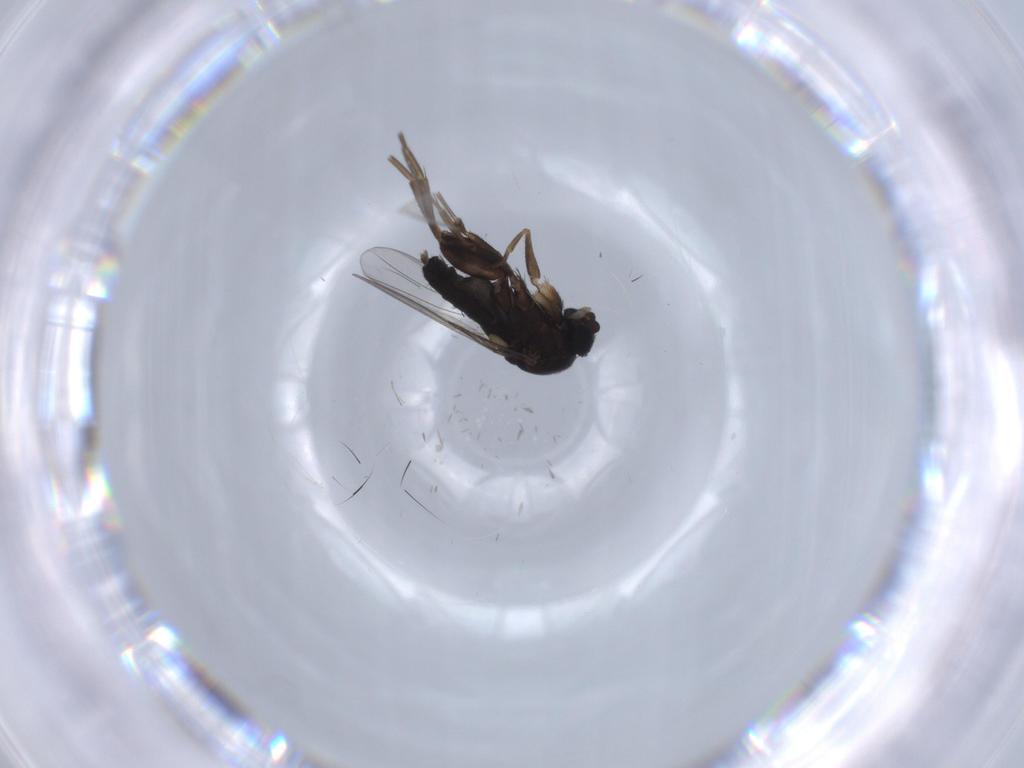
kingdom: Animalia
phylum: Arthropoda
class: Insecta
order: Diptera
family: Phoridae
